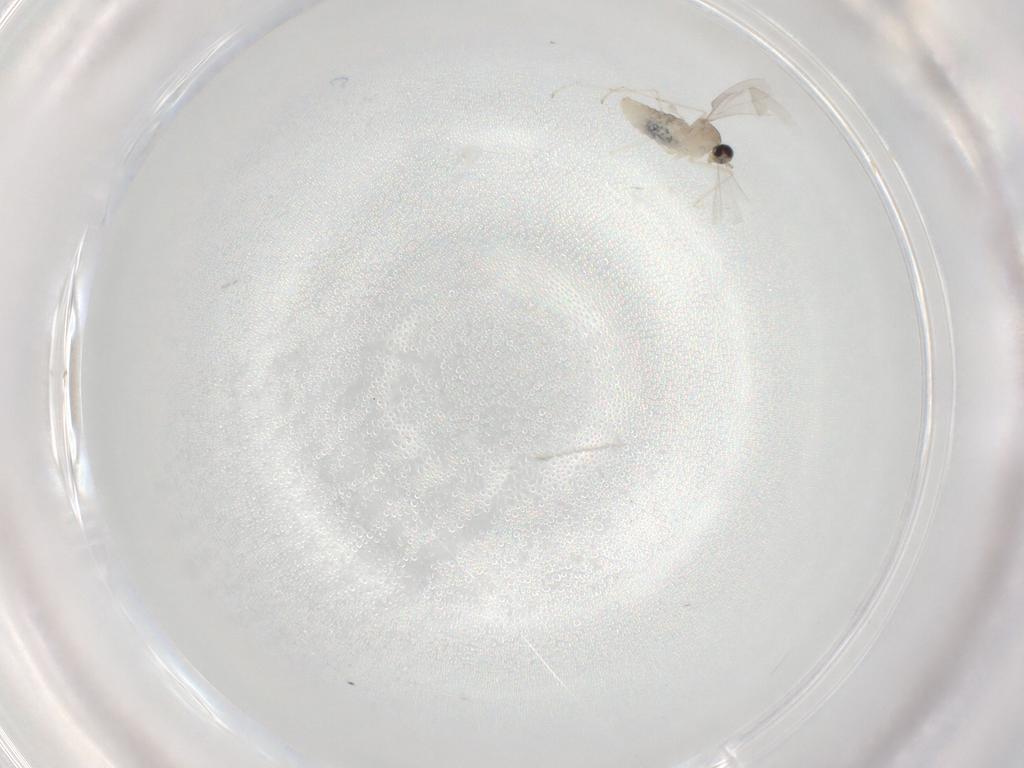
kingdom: Animalia
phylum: Arthropoda
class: Insecta
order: Diptera
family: Cecidomyiidae
